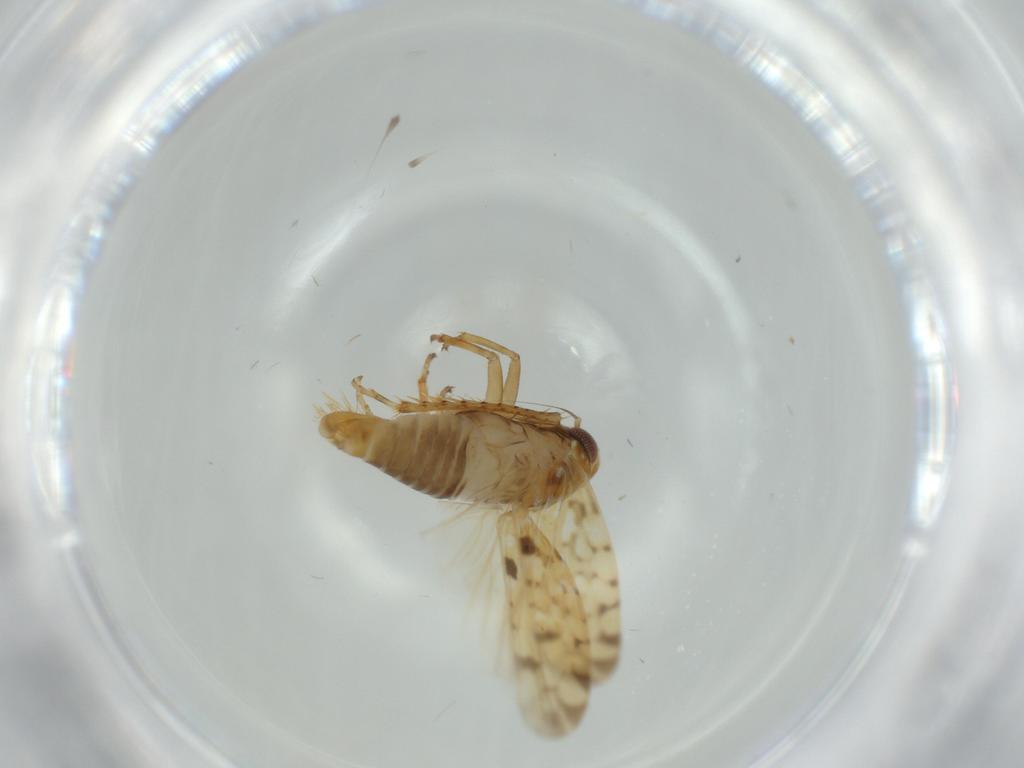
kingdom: Animalia
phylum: Arthropoda
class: Insecta
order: Hemiptera
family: Cicadellidae
